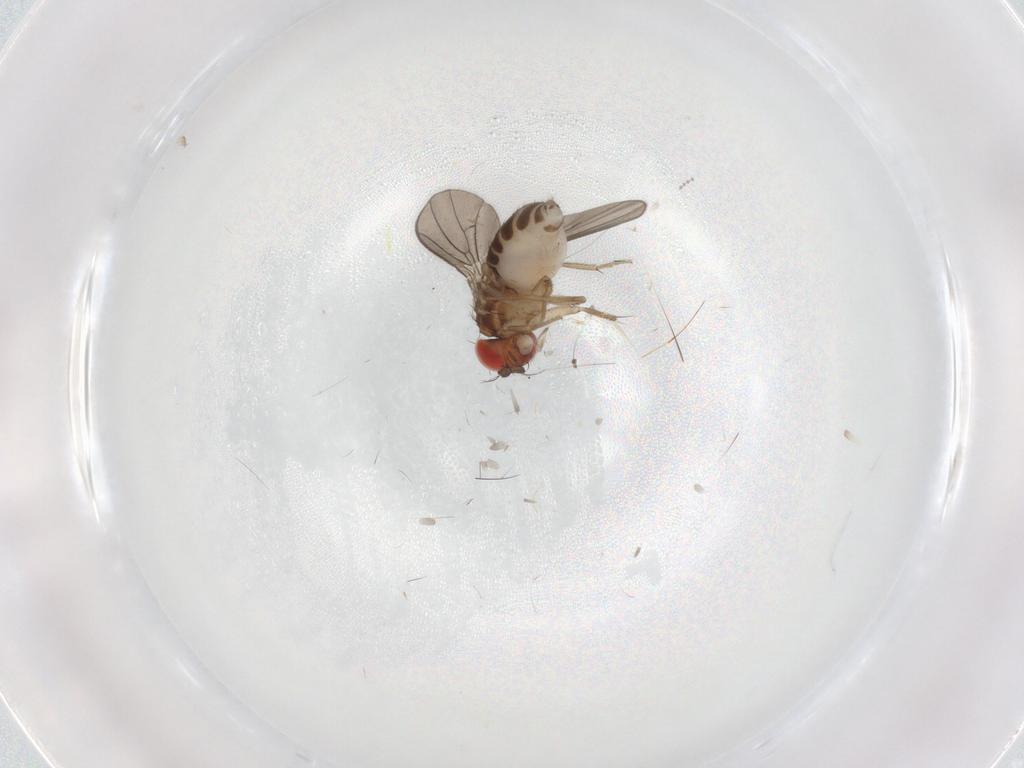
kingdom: Animalia
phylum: Arthropoda
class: Insecta
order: Diptera
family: Drosophilidae
